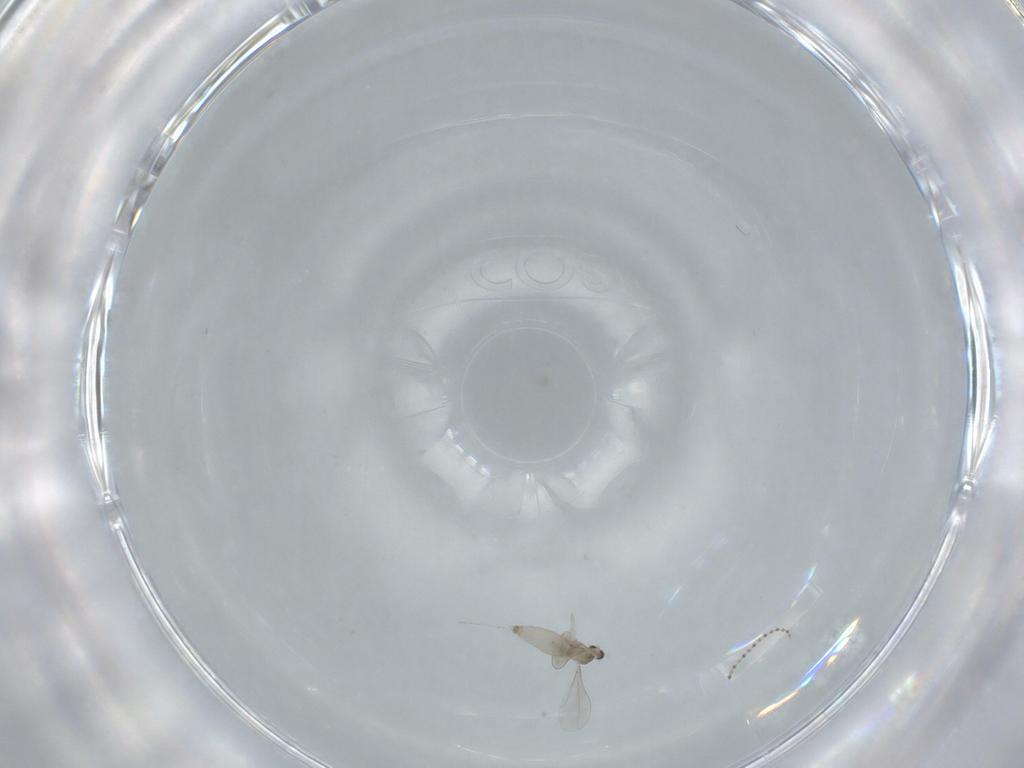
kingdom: Animalia
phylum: Arthropoda
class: Insecta
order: Diptera
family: Cecidomyiidae
